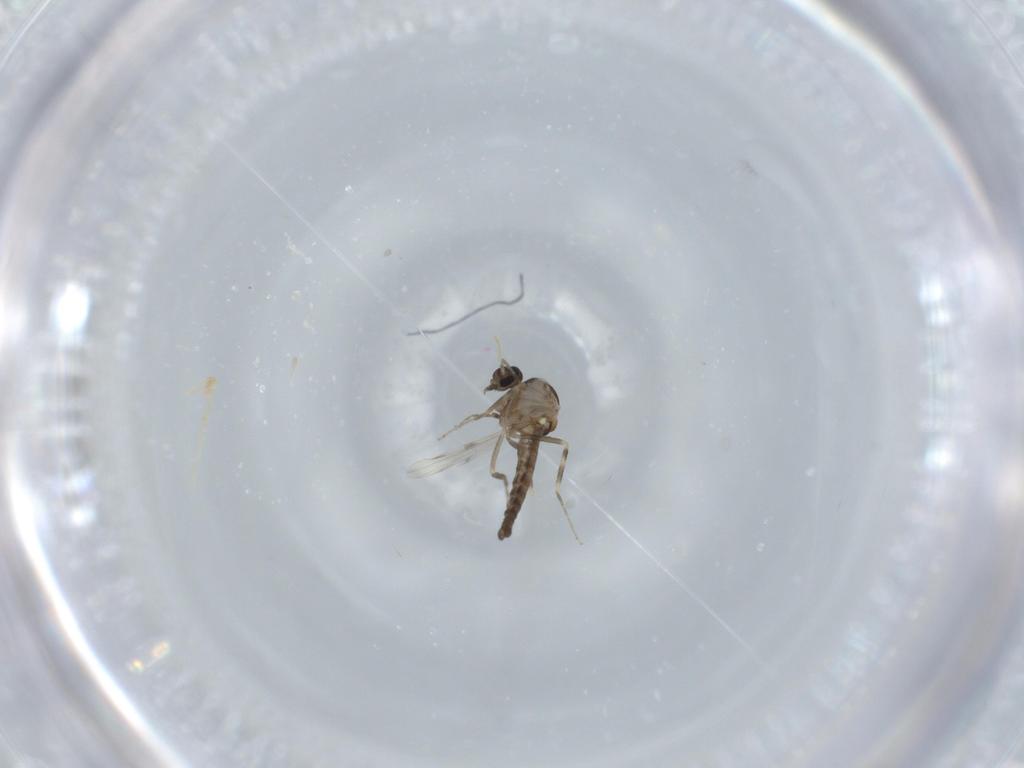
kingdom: Animalia
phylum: Arthropoda
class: Insecta
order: Diptera
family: Ceratopogonidae
